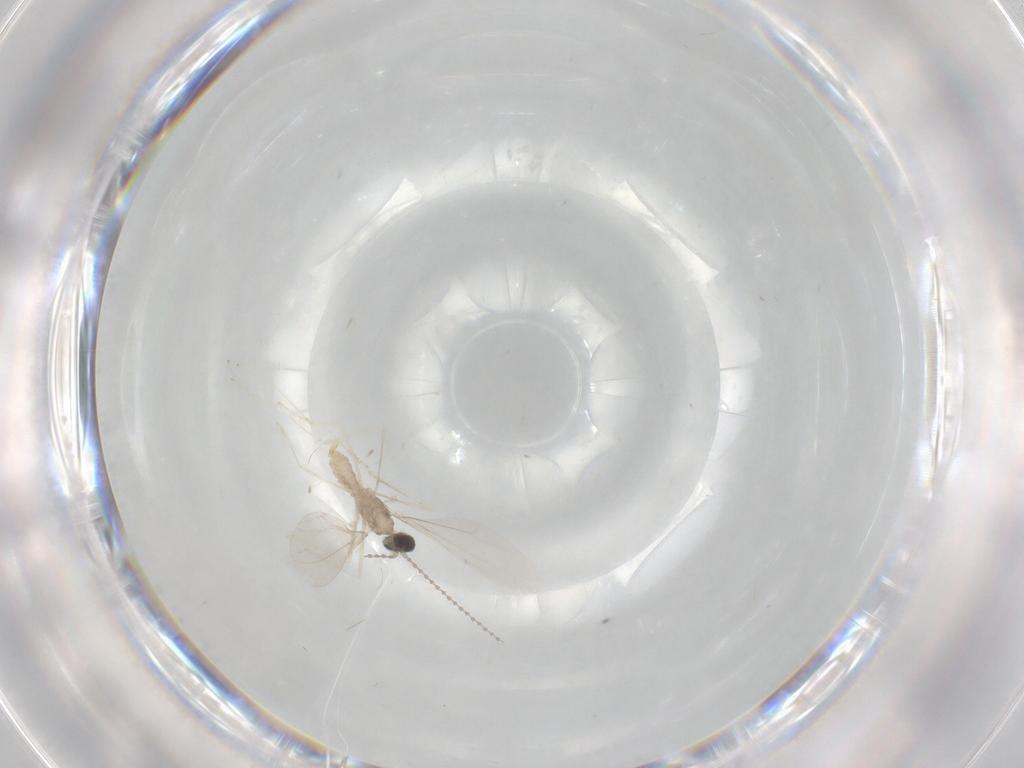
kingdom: Animalia
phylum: Arthropoda
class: Insecta
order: Diptera
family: Cecidomyiidae
